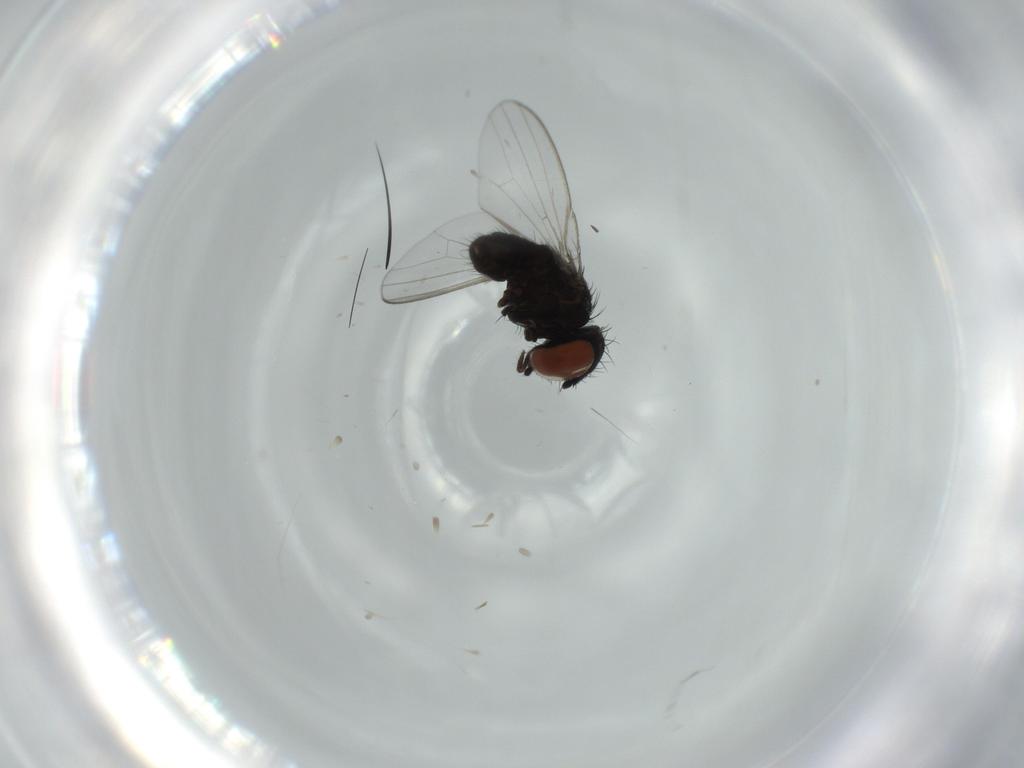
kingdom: Animalia
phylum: Arthropoda
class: Insecta
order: Diptera
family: Milichiidae
